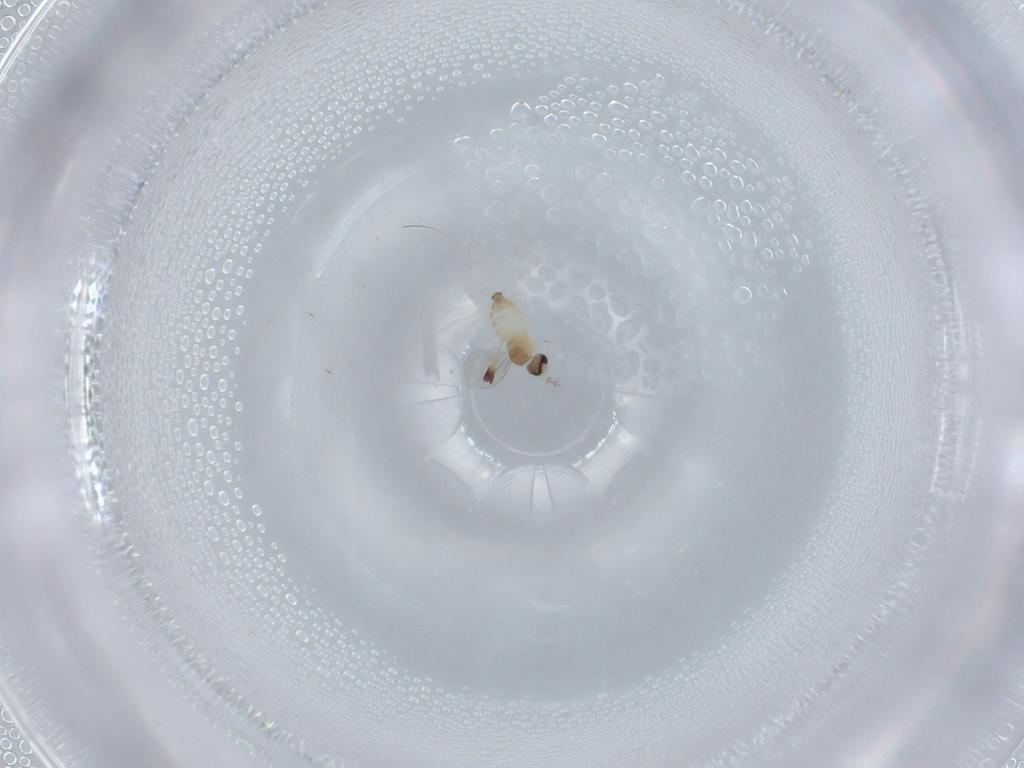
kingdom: Animalia
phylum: Arthropoda
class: Insecta
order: Diptera
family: Cecidomyiidae
